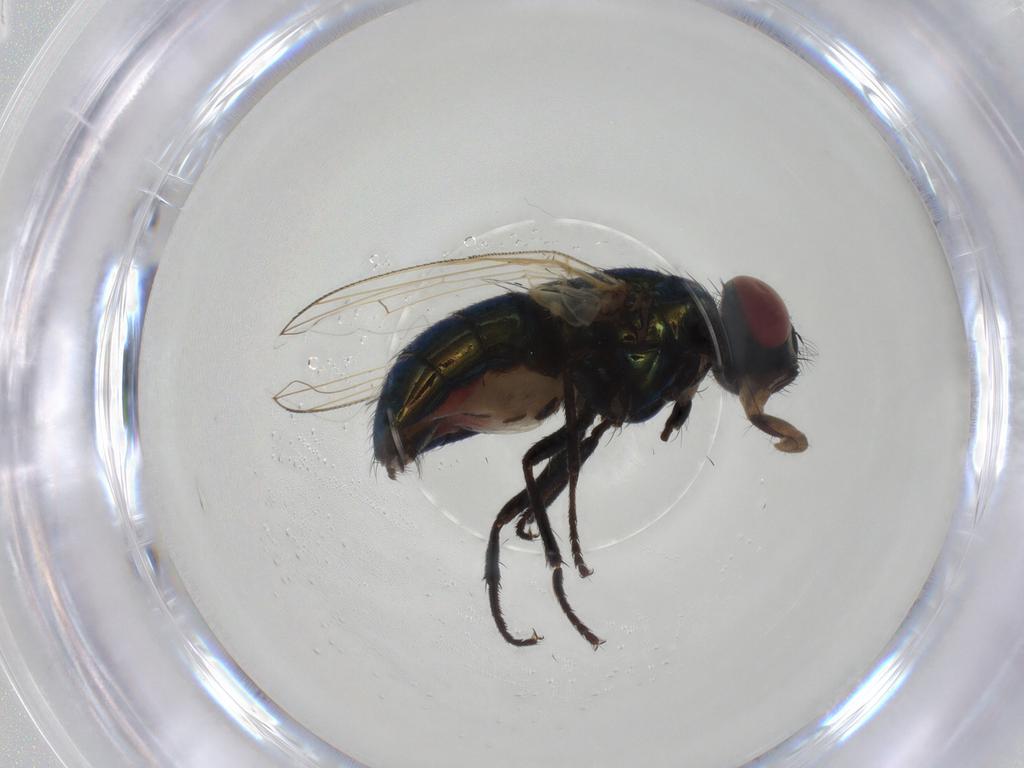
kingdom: Animalia
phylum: Arthropoda
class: Insecta
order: Diptera
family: Muscidae
